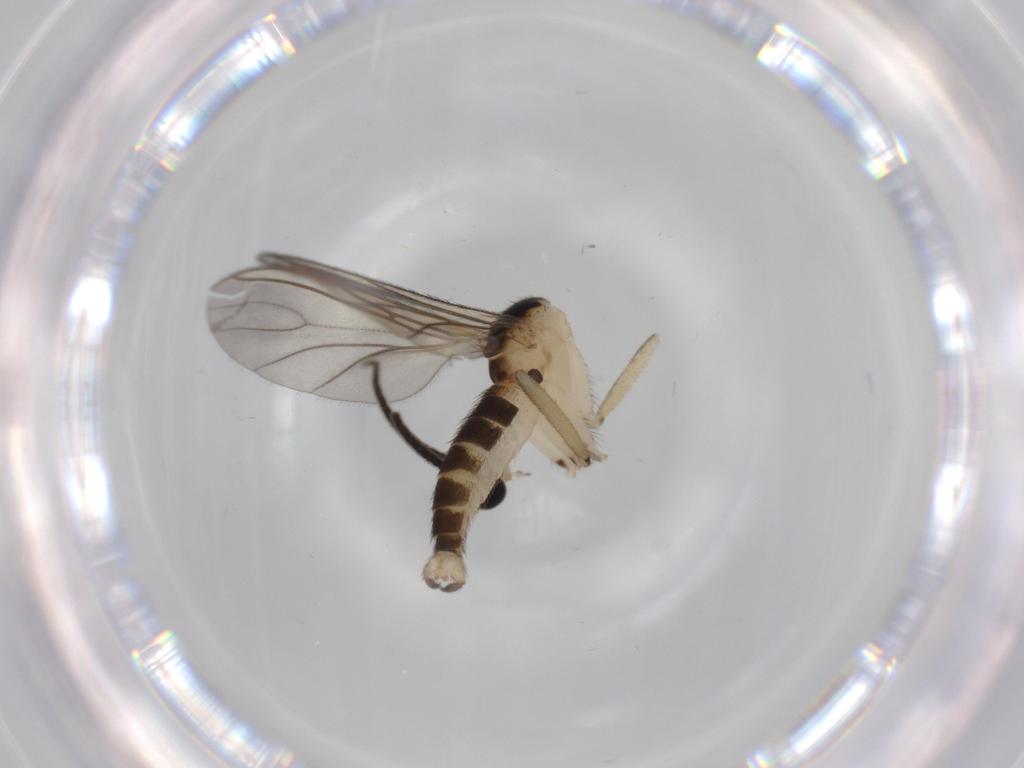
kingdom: Animalia
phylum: Arthropoda
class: Insecta
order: Diptera
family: Sciaridae
